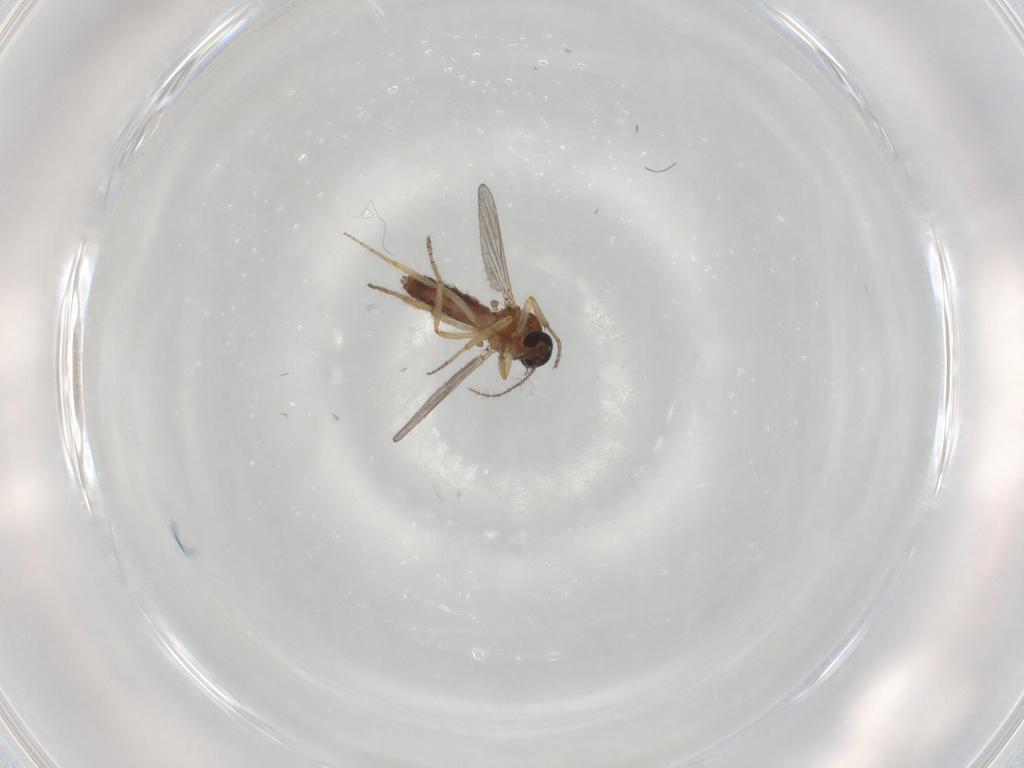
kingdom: Animalia
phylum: Arthropoda
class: Insecta
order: Diptera
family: Ceratopogonidae
